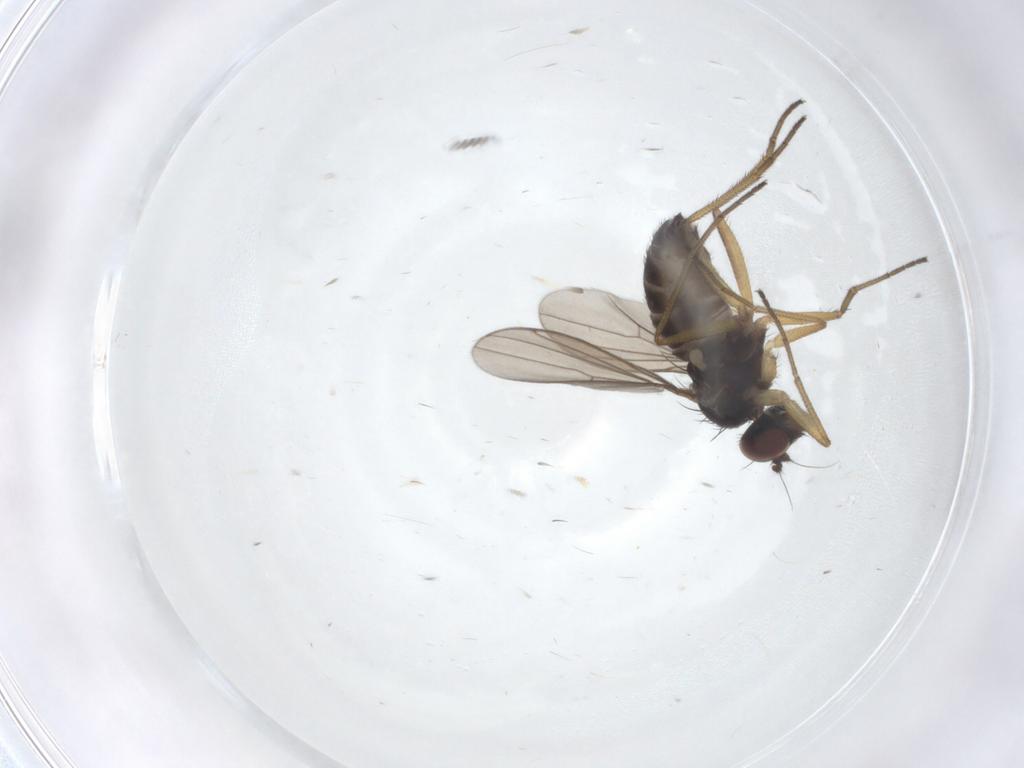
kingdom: Animalia
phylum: Arthropoda
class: Insecta
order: Diptera
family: Dolichopodidae
